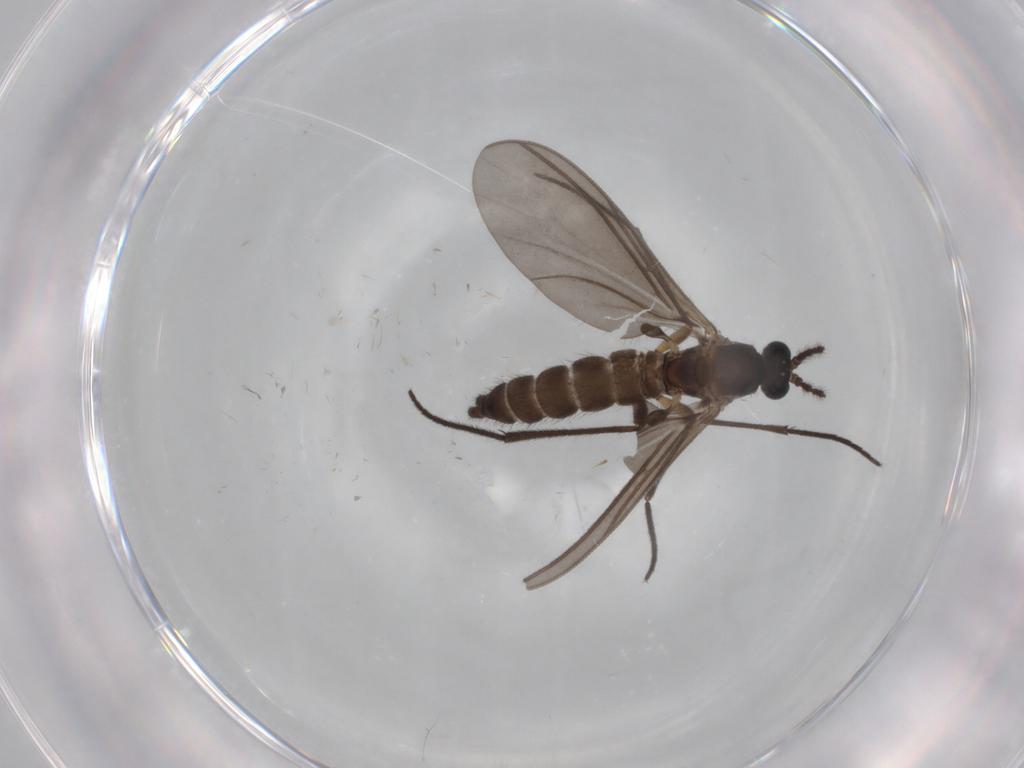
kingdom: Animalia
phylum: Arthropoda
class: Insecta
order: Diptera
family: Sciaridae
